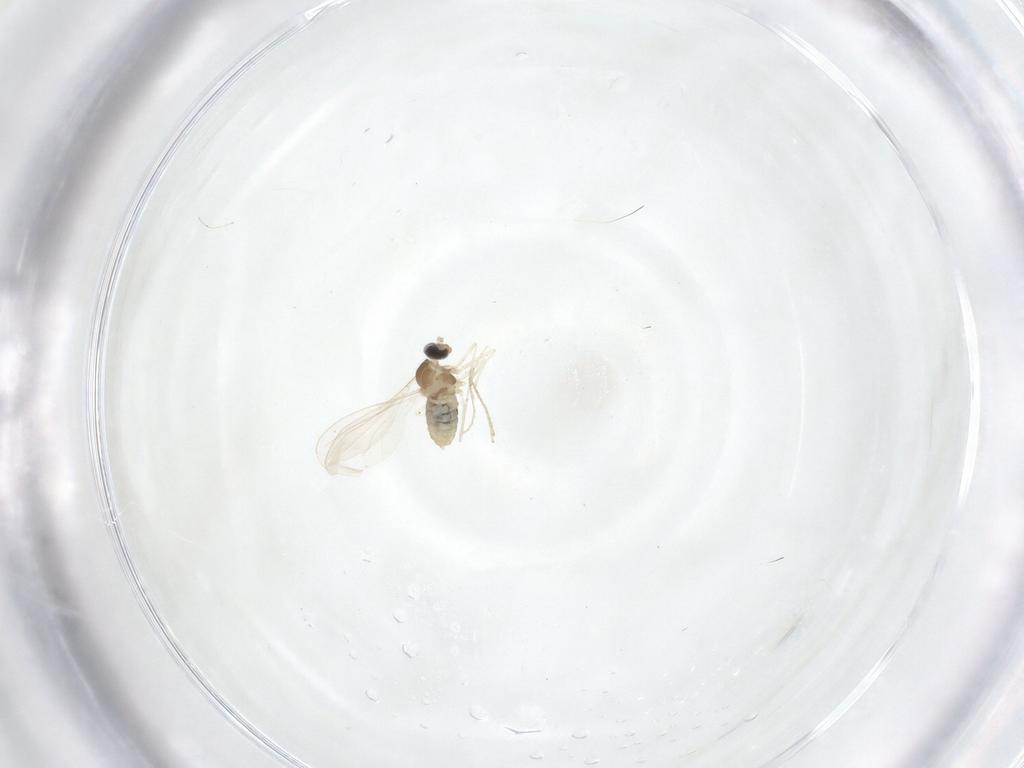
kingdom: Animalia
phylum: Arthropoda
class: Insecta
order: Diptera
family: Cecidomyiidae
